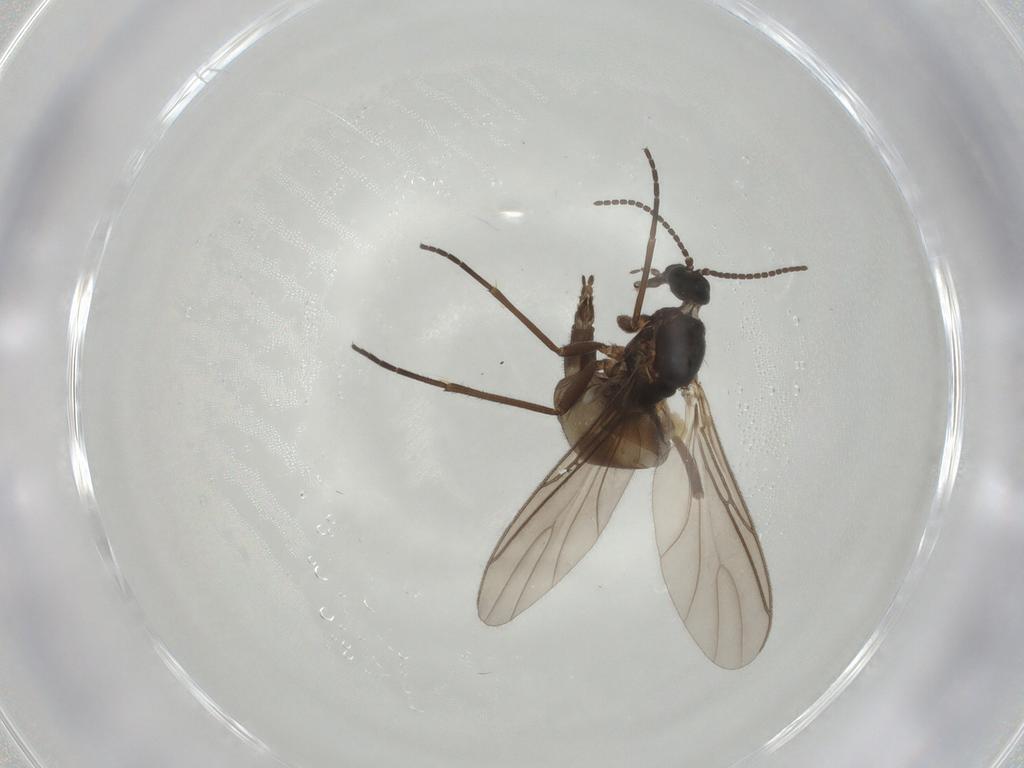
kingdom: Animalia
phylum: Arthropoda
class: Insecta
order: Diptera
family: Sciaridae
